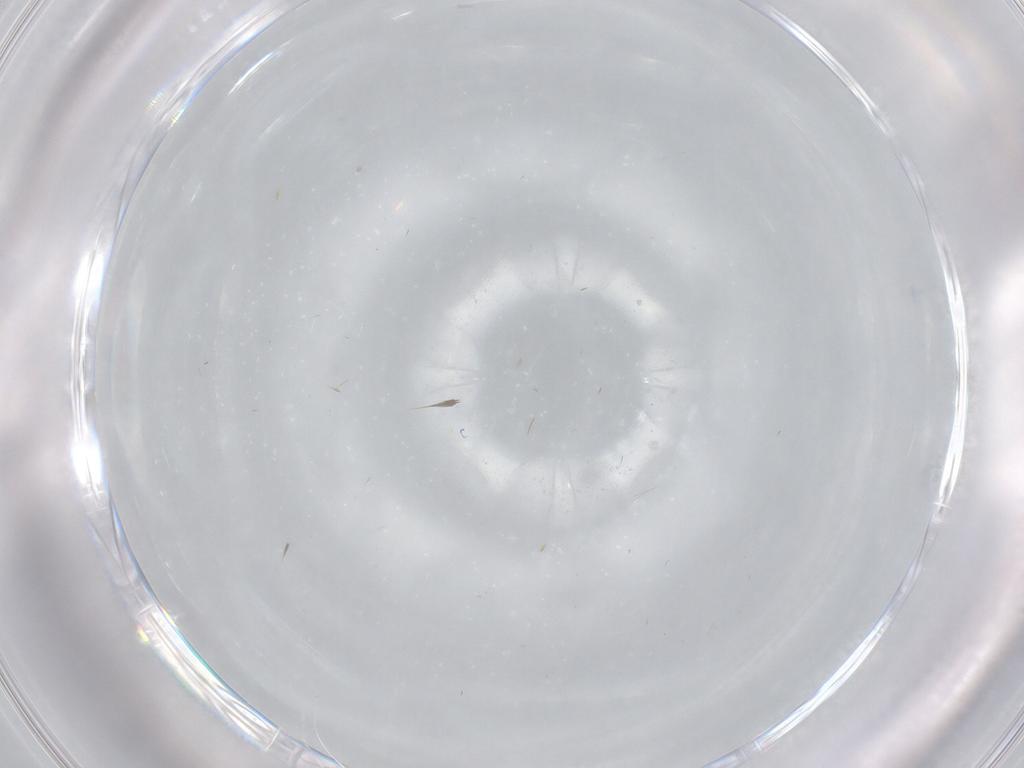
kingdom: Animalia
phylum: Arthropoda
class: Insecta
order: Hemiptera
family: Aleyrodidae
